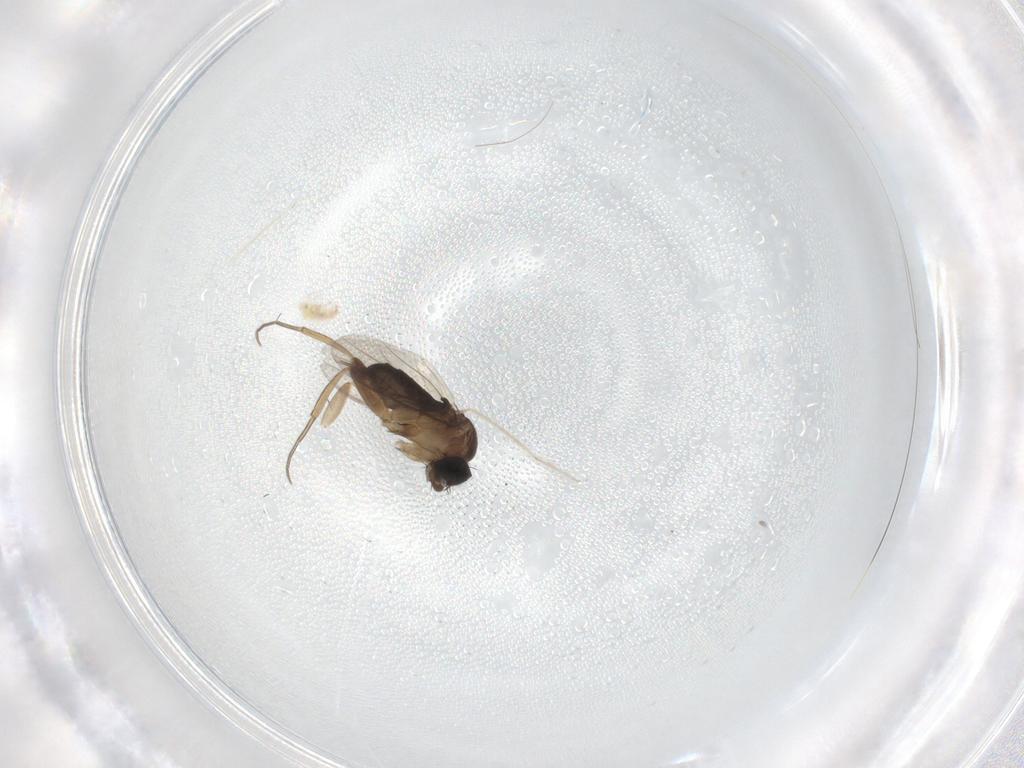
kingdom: Animalia
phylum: Arthropoda
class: Insecta
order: Diptera
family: Chironomidae
